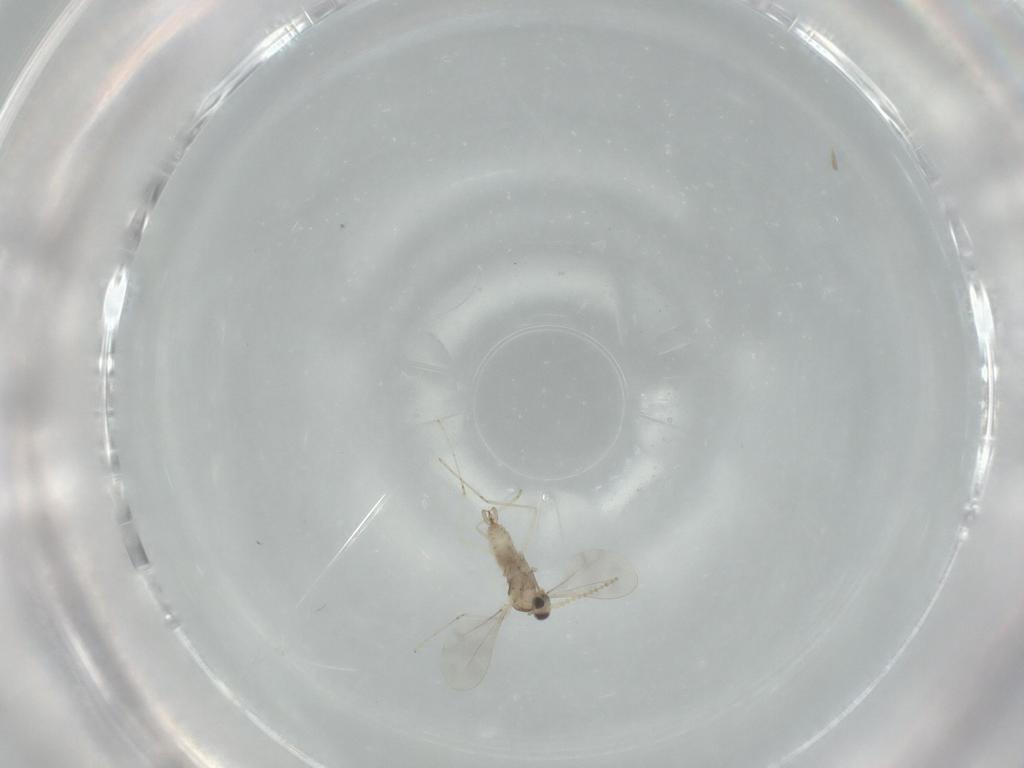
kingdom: Animalia
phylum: Arthropoda
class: Insecta
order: Diptera
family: Cecidomyiidae
